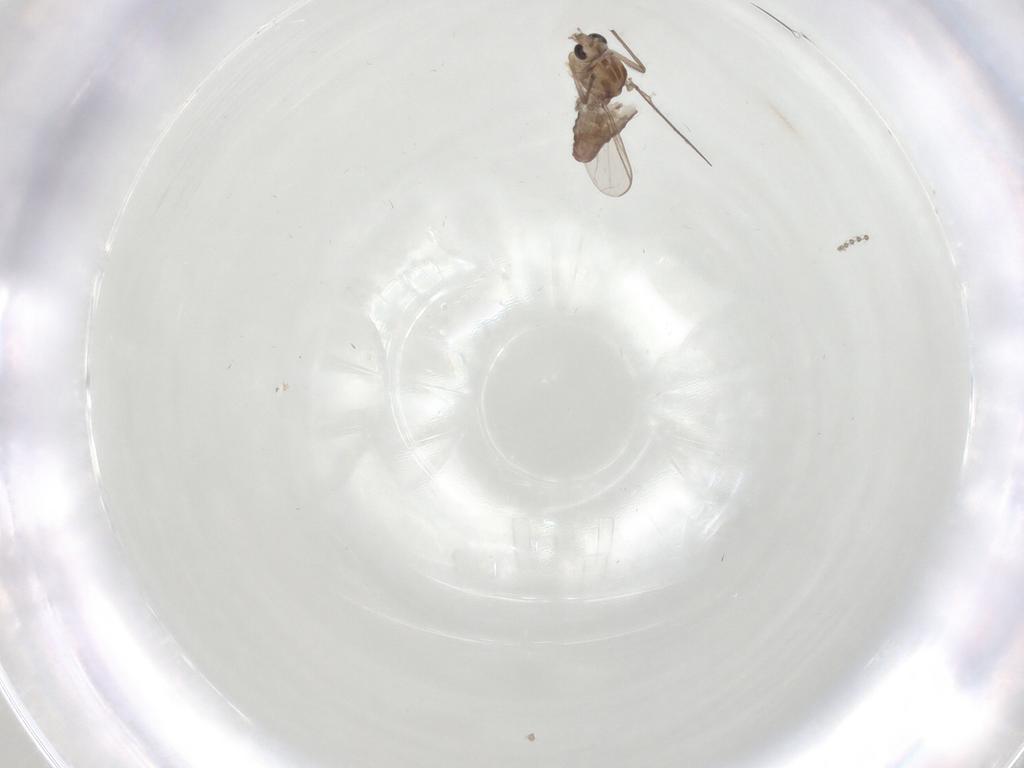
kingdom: Animalia
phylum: Arthropoda
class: Insecta
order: Diptera
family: Chironomidae
